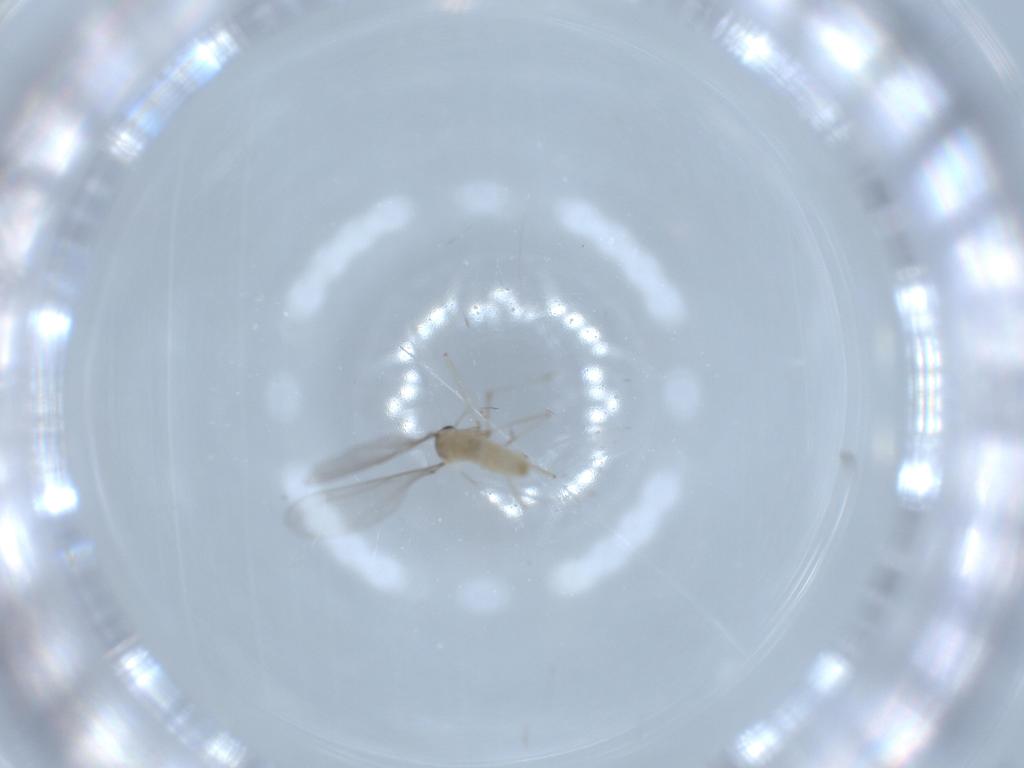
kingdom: Animalia
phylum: Arthropoda
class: Insecta
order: Diptera
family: Cecidomyiidae
